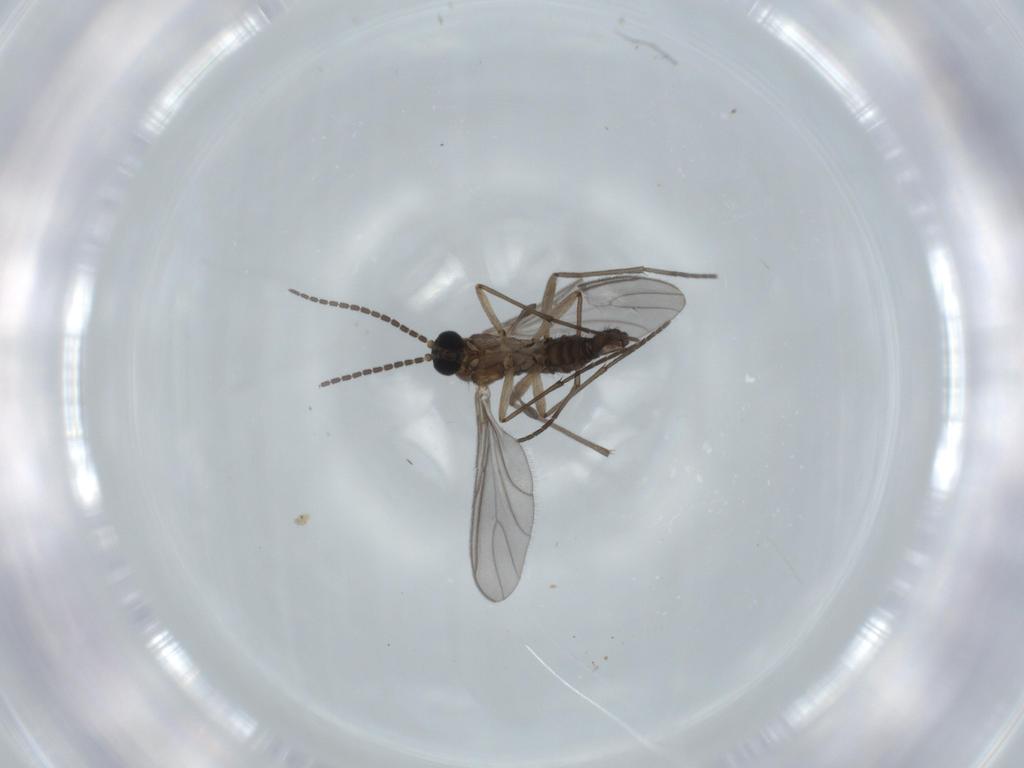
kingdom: Animalia
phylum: Arthropoda
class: Insecta
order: Diptera
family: Sciaridae
